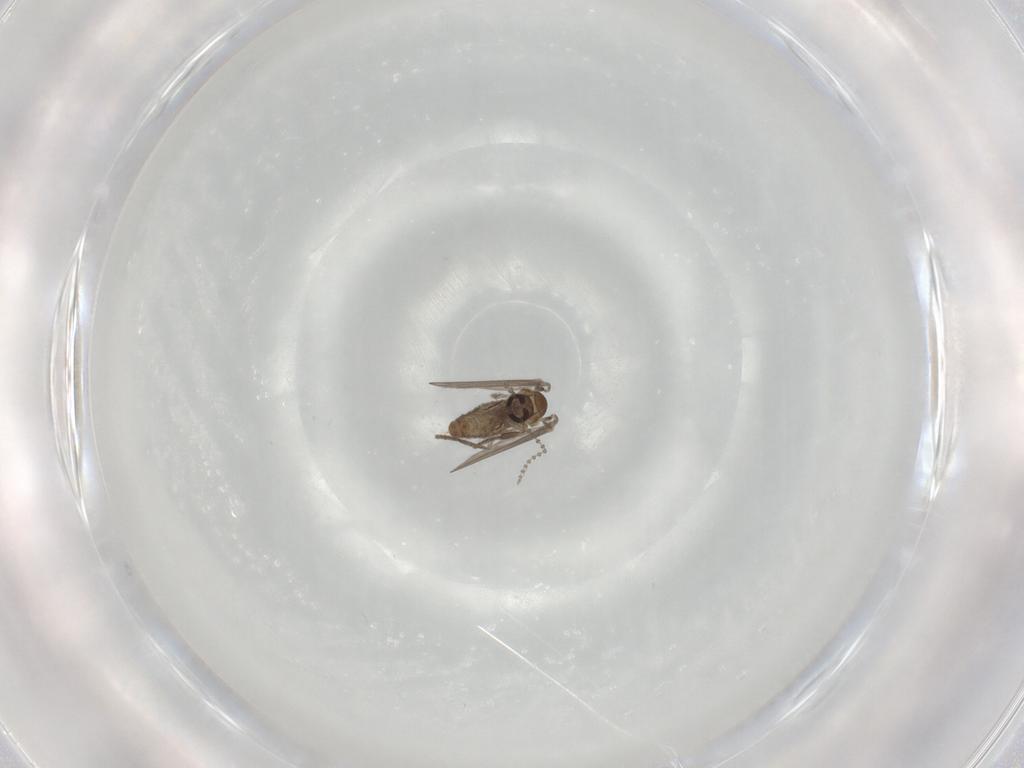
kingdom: Animalia
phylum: Arthropoda
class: Insecta
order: Diptera
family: Psychodidae
